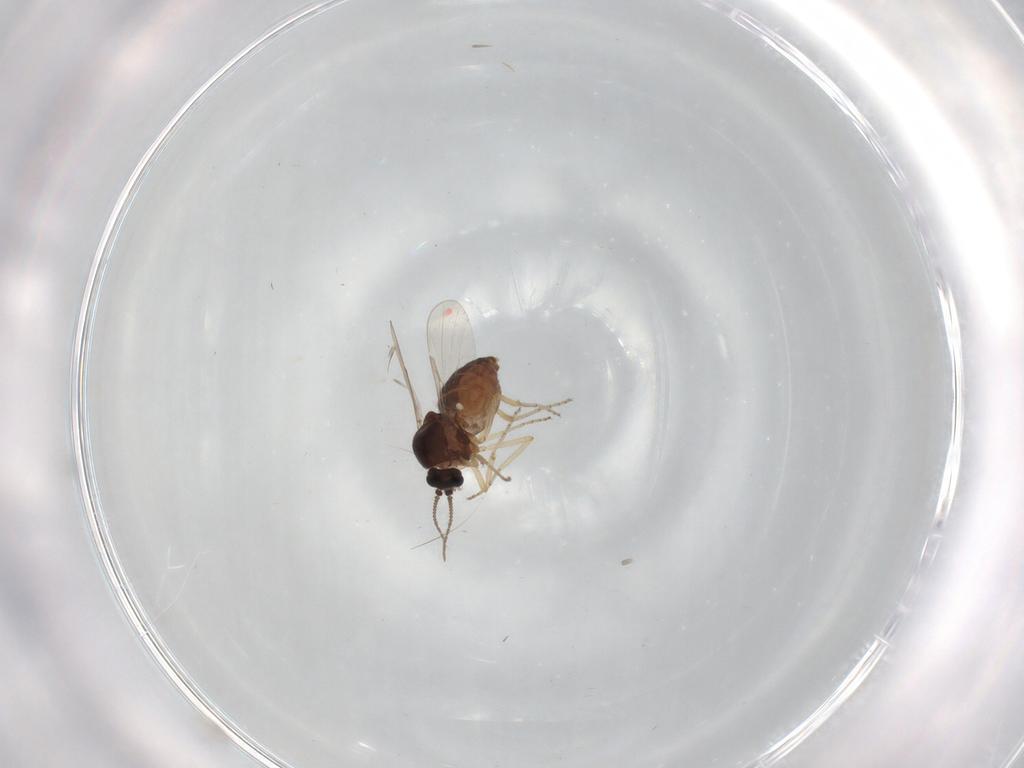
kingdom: Animalia
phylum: Arthropoda
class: Insecta
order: Diptera
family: Ceratopogonidae
